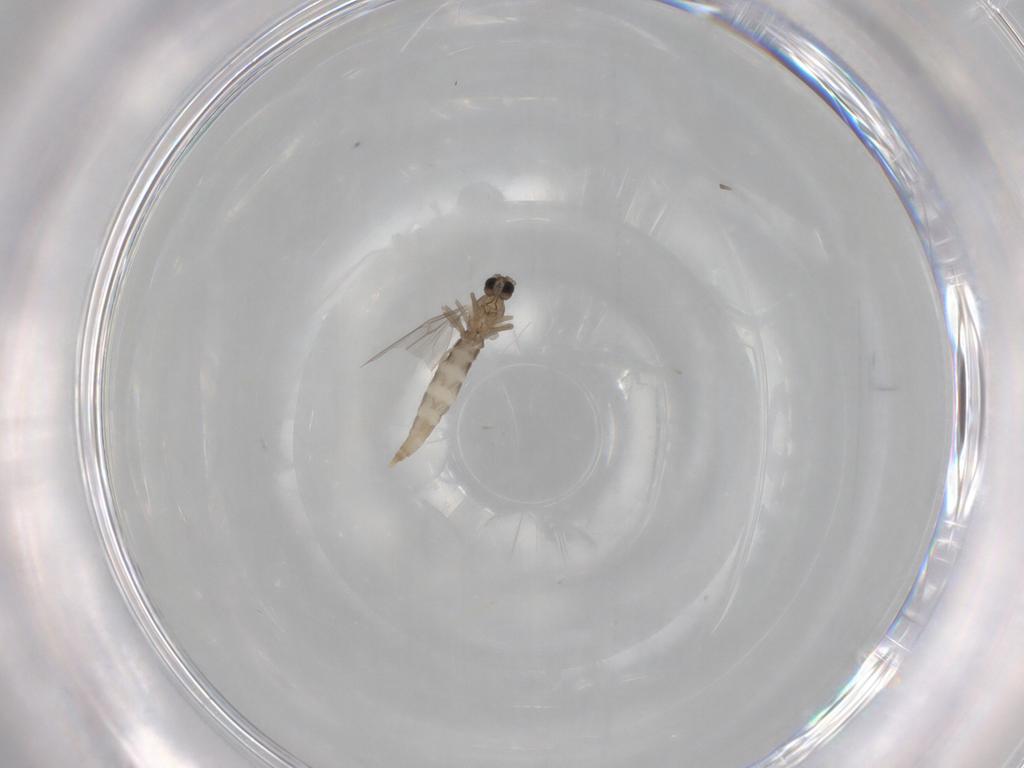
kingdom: Animalia
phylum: Arthropoda
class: Insecta
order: Diptera
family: Cecidomyiidae
